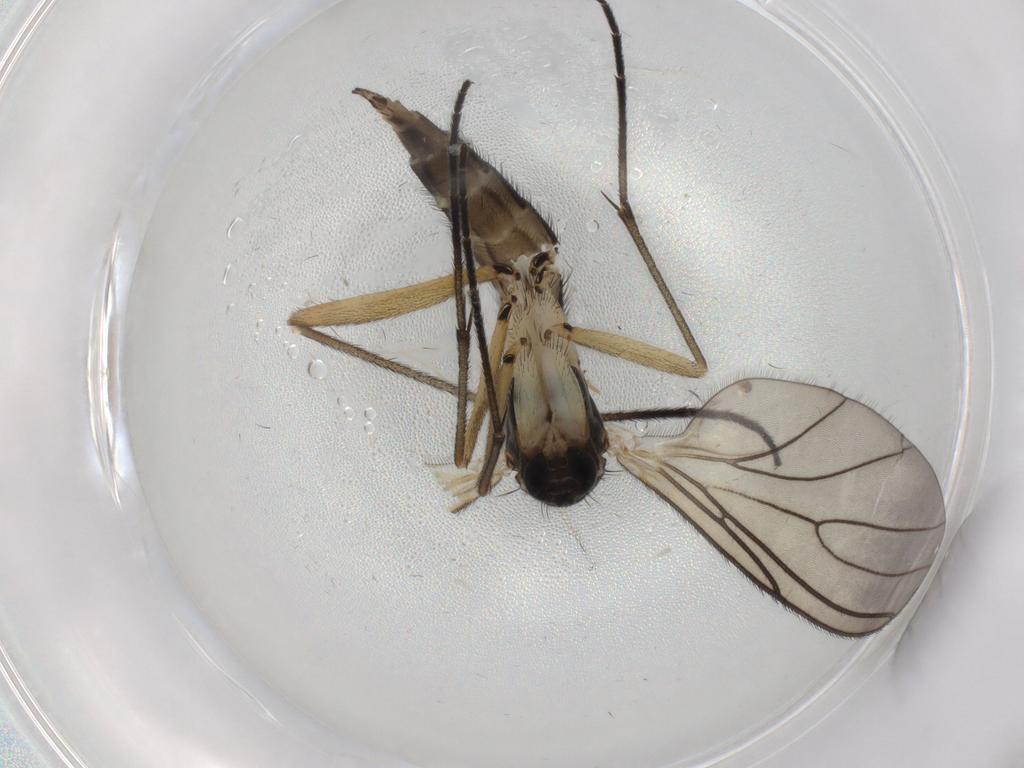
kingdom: Animalia
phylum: Arthropoda
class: Insecta
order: Diptera
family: Sciaridae
